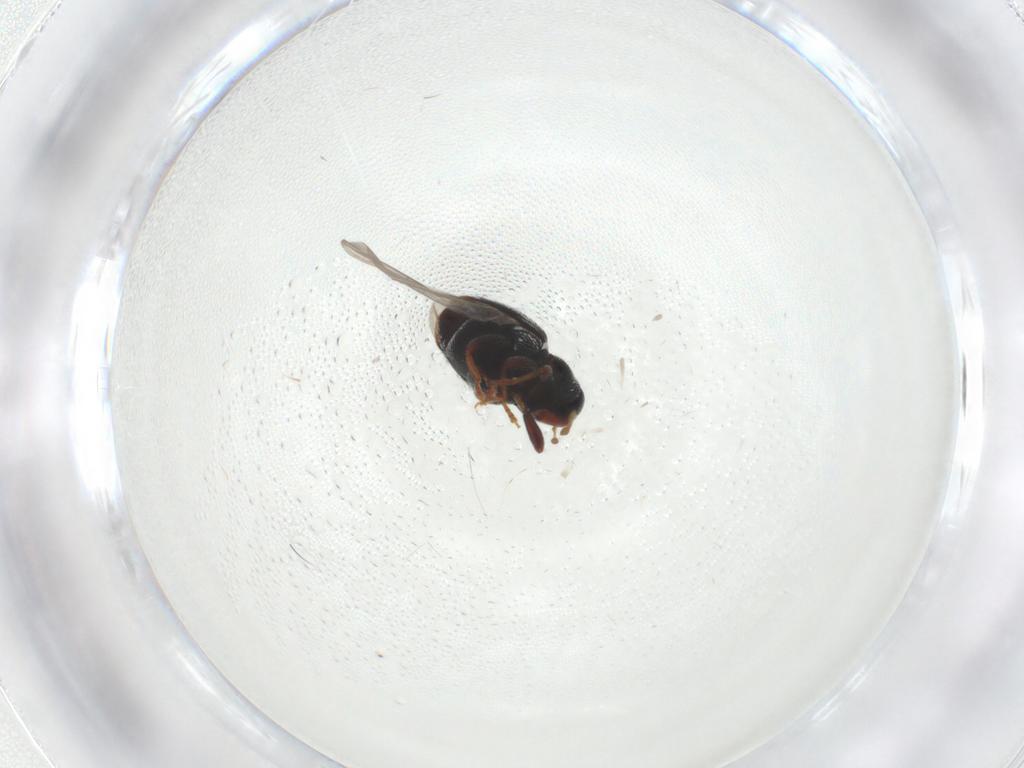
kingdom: Animalia
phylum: Arthropoda
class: Insecta
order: Coleoptera
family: Curculionidae
